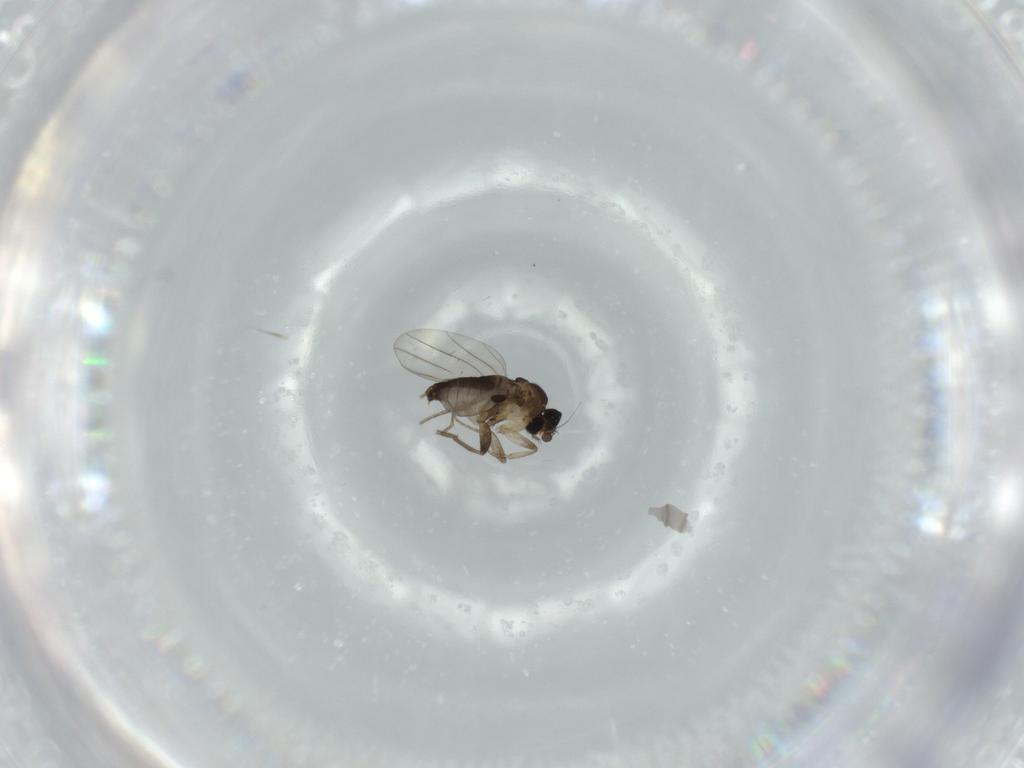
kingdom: Animalia
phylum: Arthropoda
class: Insecta
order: Diptera
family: Phoridae
